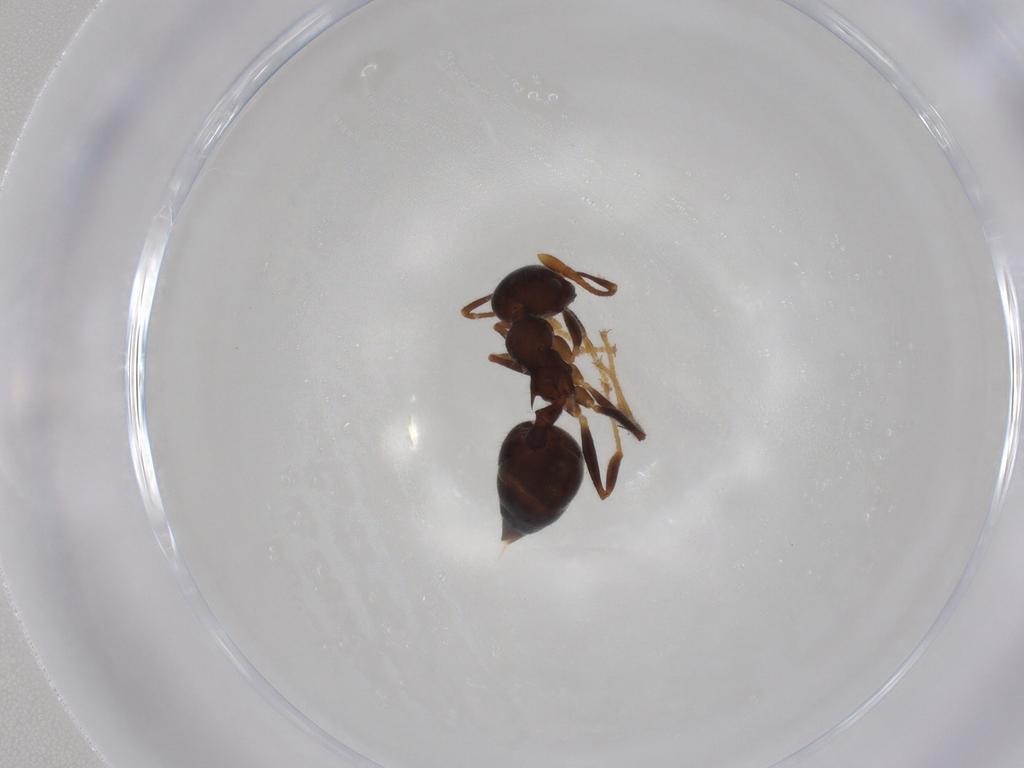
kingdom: Animalia
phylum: Arthropoda
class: Insecta
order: Hymenoptera
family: Formicidae
